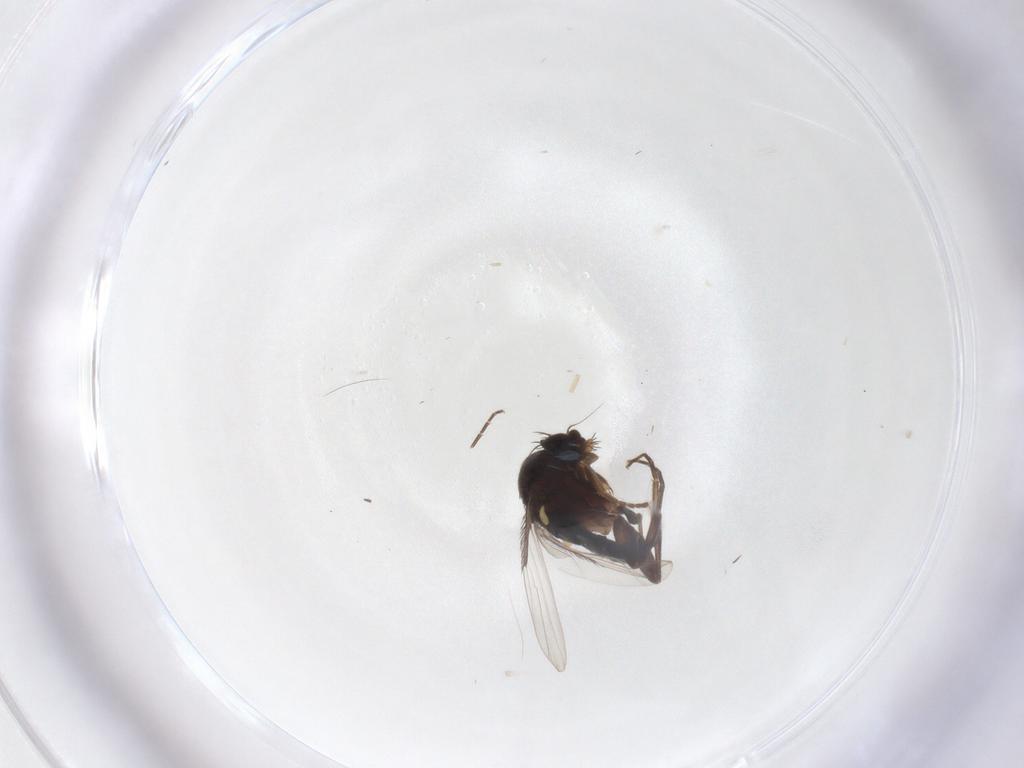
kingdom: Animalia
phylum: Arthropoda
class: Insecta
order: Diptera
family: Phoridae
